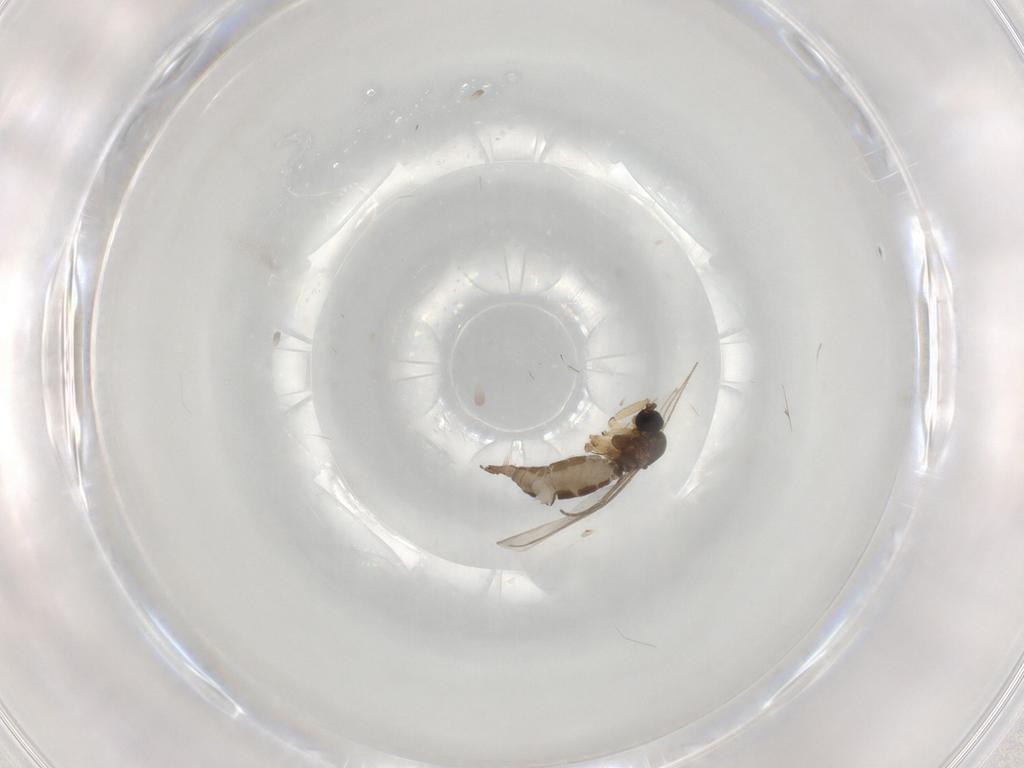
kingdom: Animalia
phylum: Arthropoda
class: Insecta
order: Diptera
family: Sciaridae
